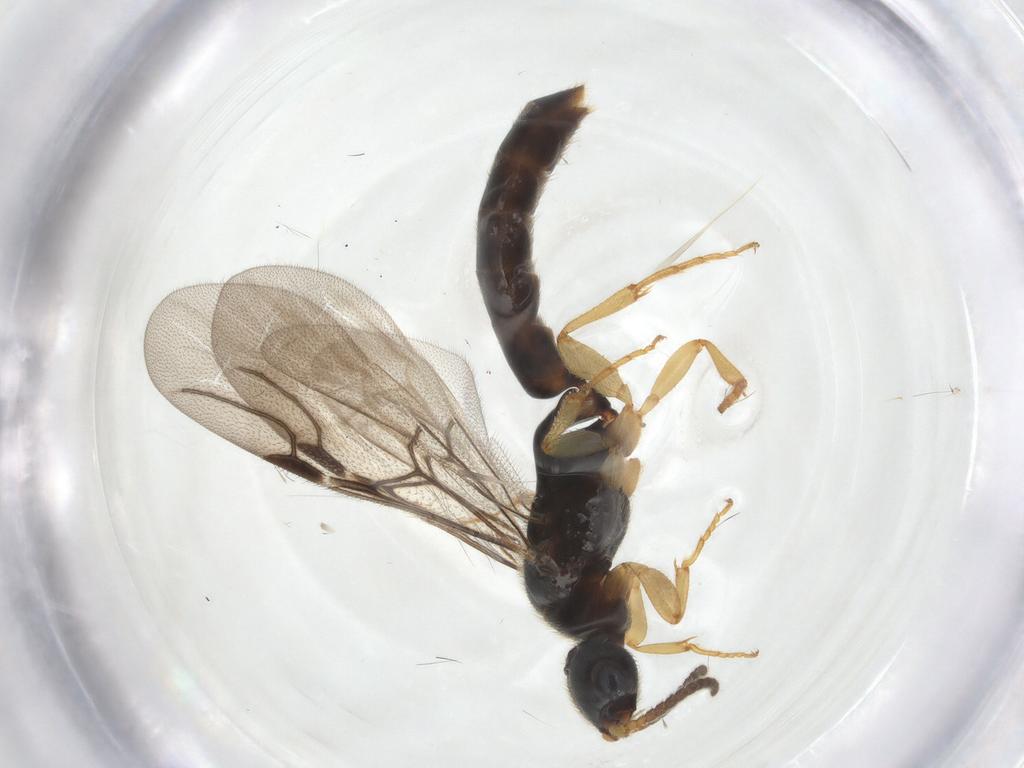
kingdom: Animalia
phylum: Arthropoda
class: Insecta
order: Hymenoptera
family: Bethylidae
